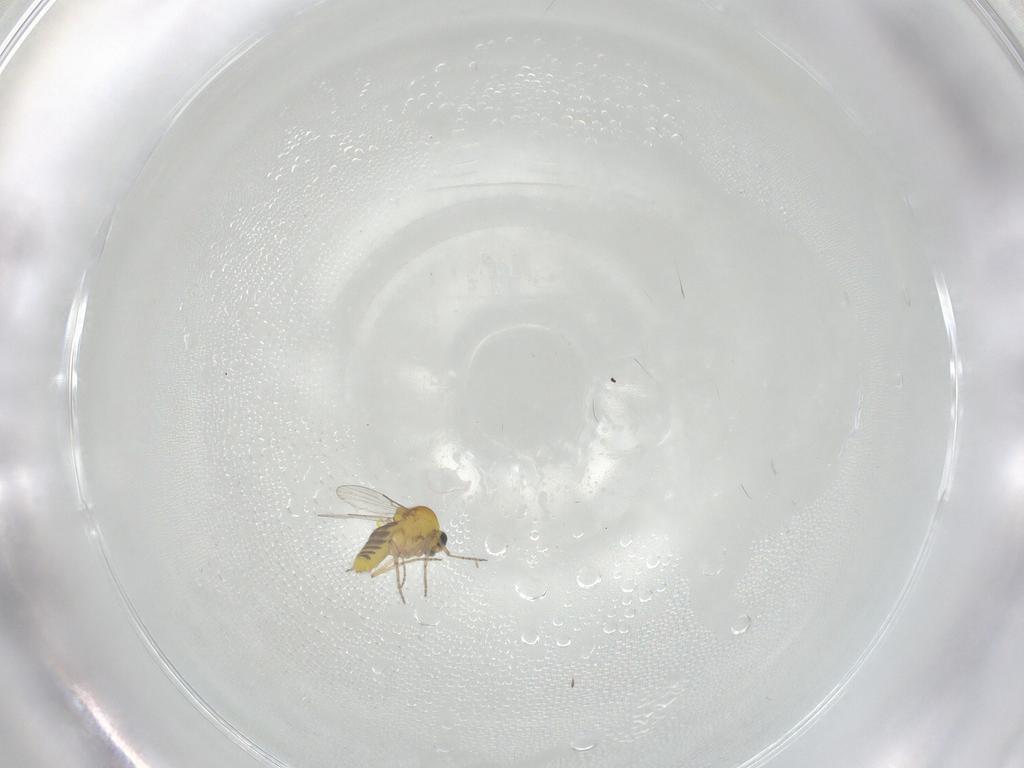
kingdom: Animalia
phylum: Arthropoda
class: Insecta
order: Diptera
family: Ceratopogonidae
